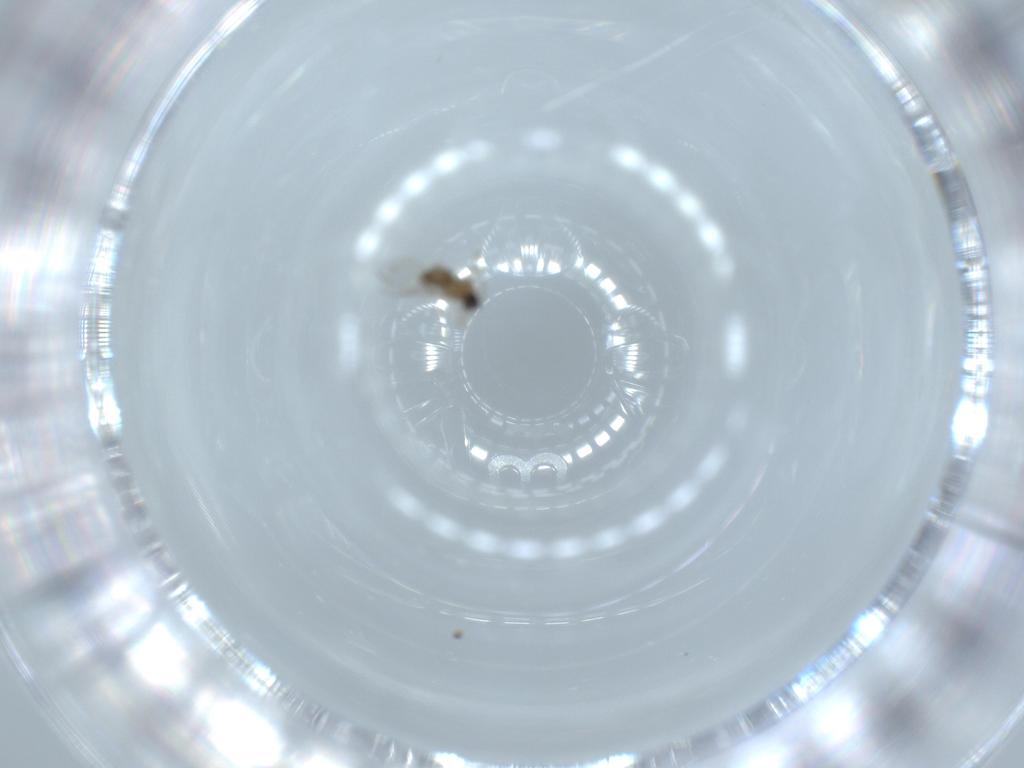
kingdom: Animalia
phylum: Arthropoda
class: Insecta
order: Diptera
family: Cecidomyiidae
